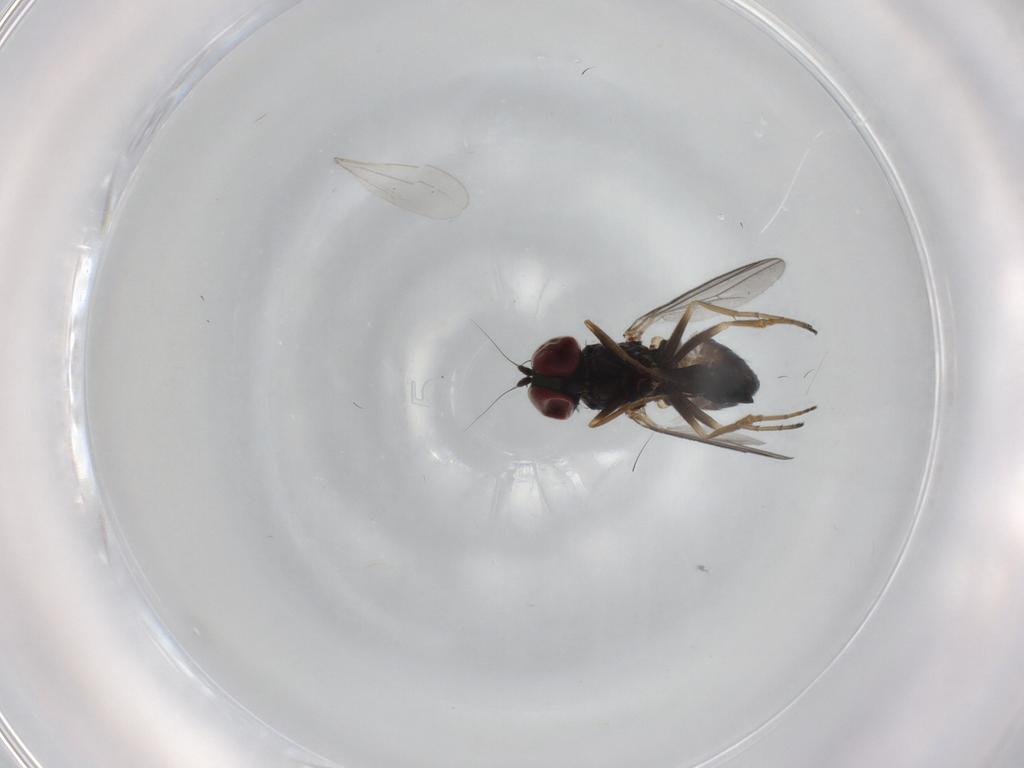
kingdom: Animalia
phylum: Arthropoda
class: Insecta
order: Diptera
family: Dolichopodidae
